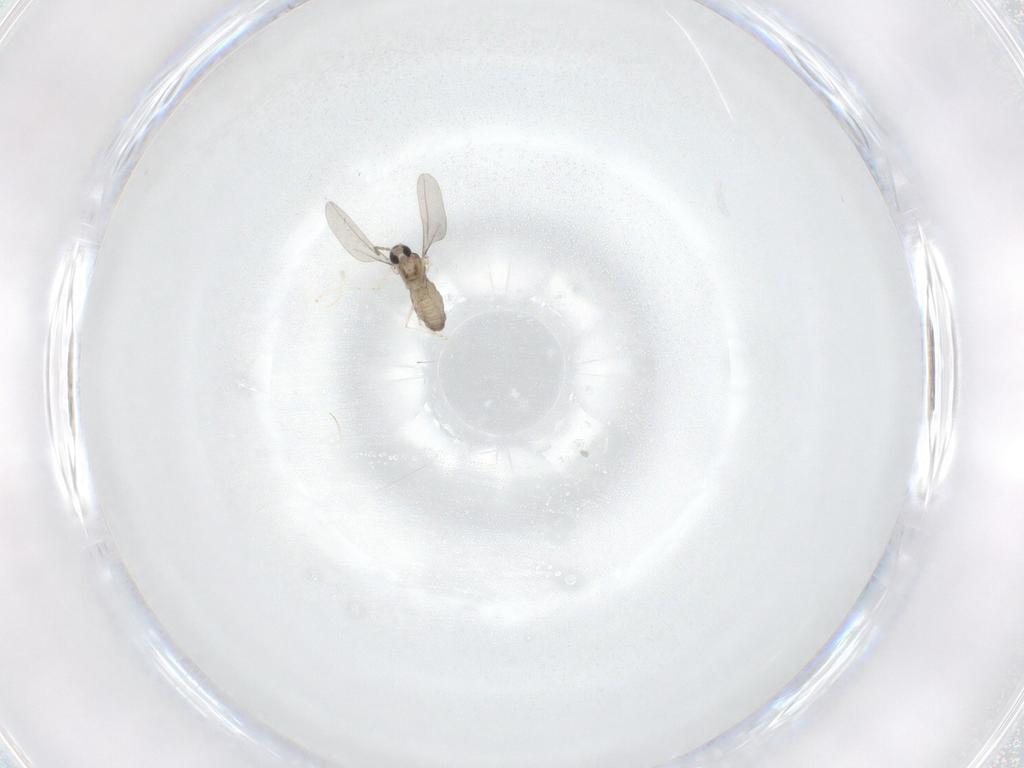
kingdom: Animalia
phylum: Arthropoda
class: Insecta
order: Diptera
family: Cecidomyiidae
